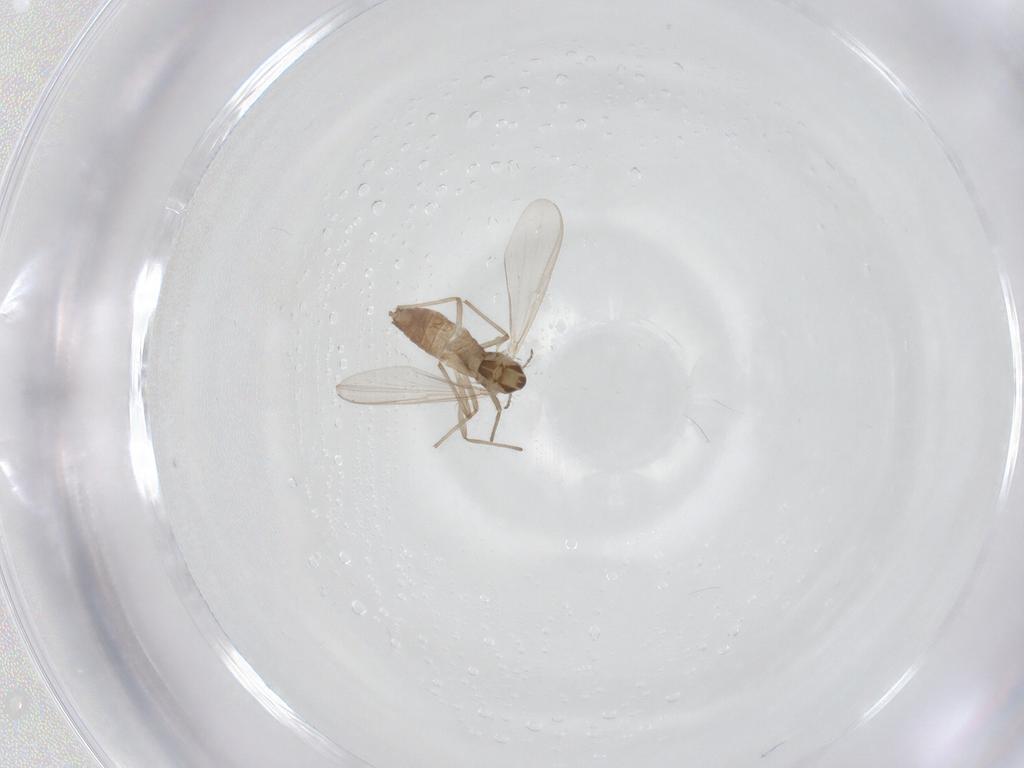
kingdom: Animalia
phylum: Arthropoda
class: Insecta
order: Diptera
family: Chironomidae
